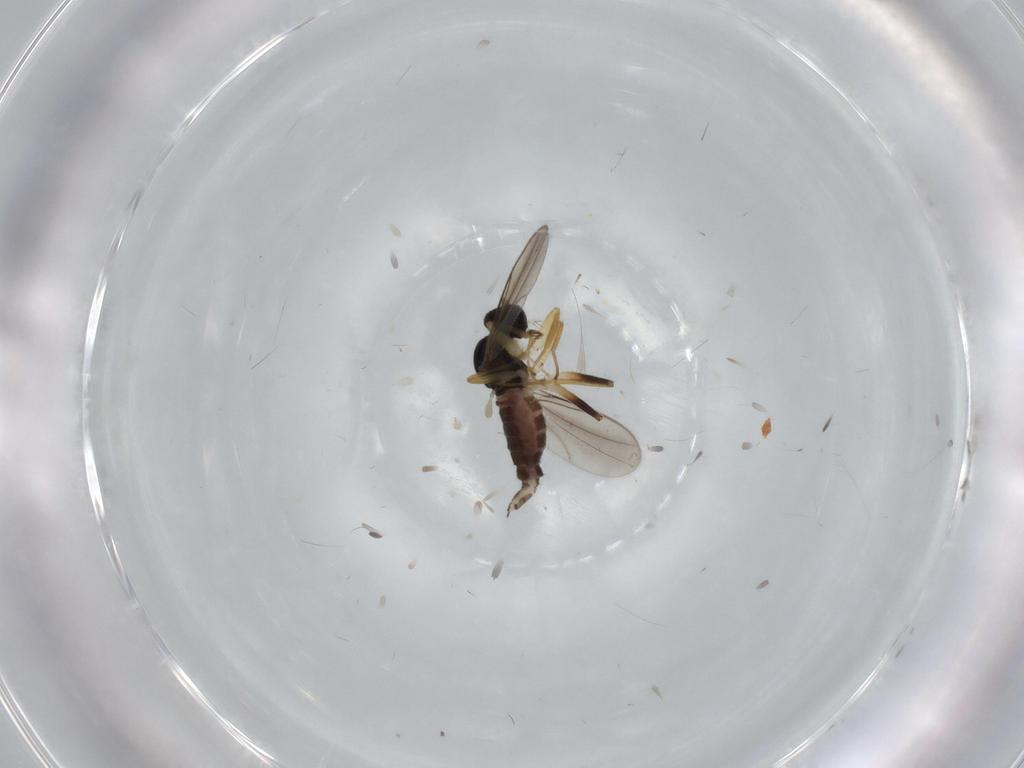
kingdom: Animalia
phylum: Arthropoda
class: Insecta
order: Diptera
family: Hybotidae
